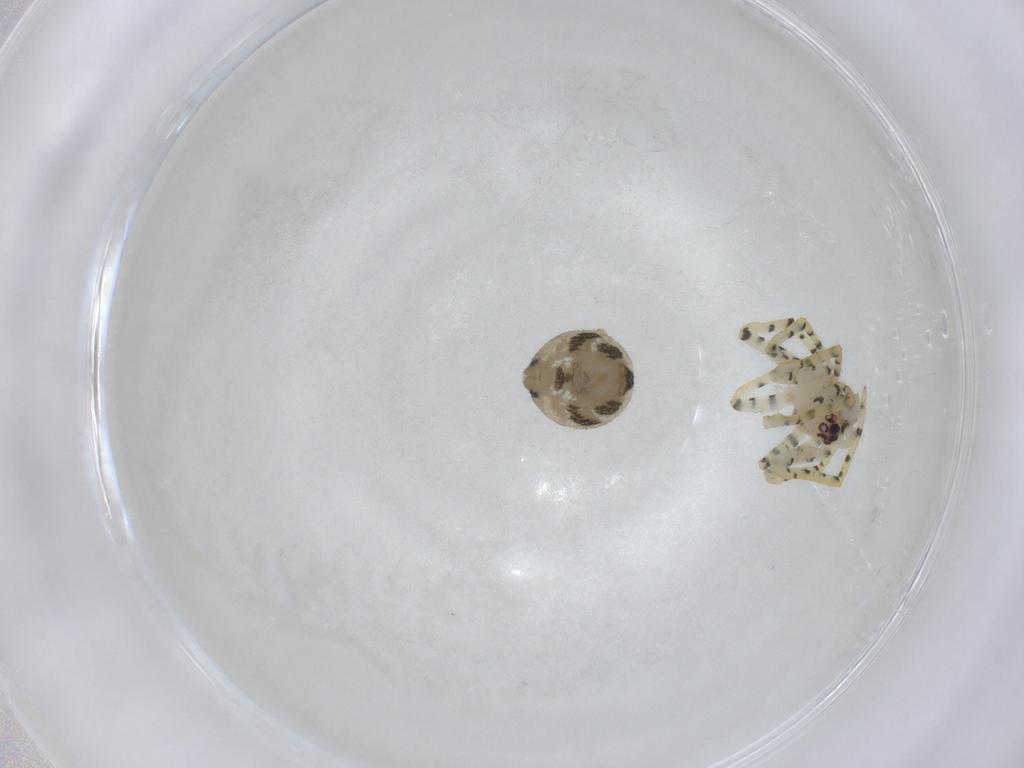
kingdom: Animalia
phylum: Arthropoda
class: Arachnida
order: Araneae
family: Theridiidae
